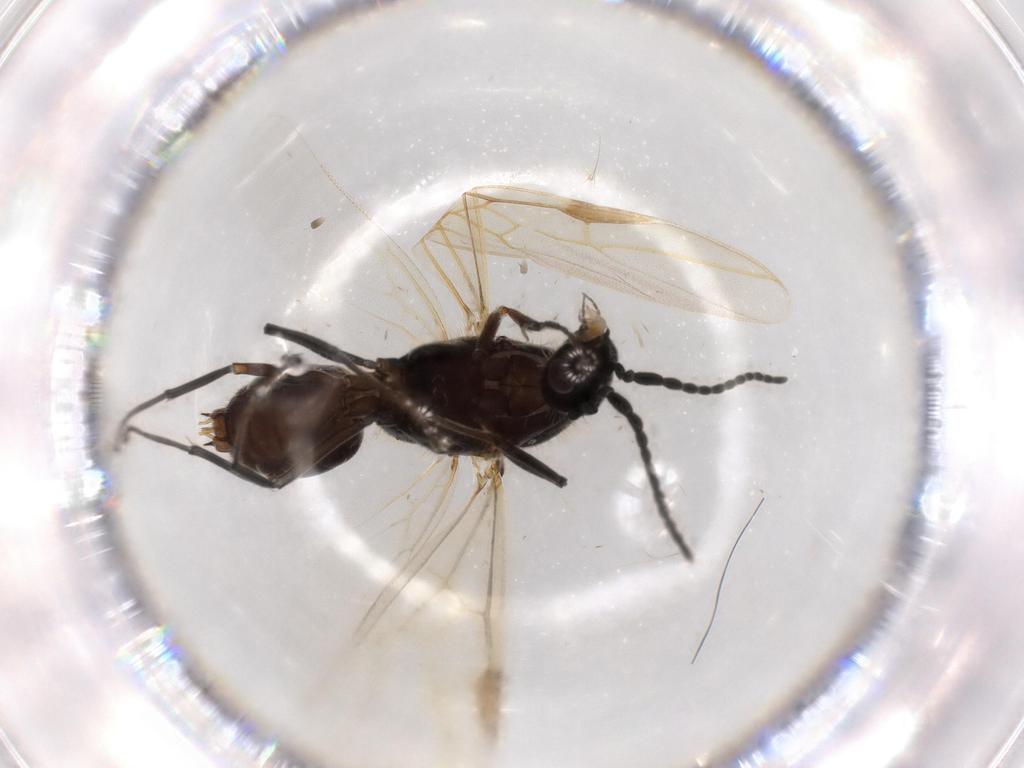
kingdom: Animalia
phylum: Arthropoda
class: Insecta
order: Hymenoptera
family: Formicidae
